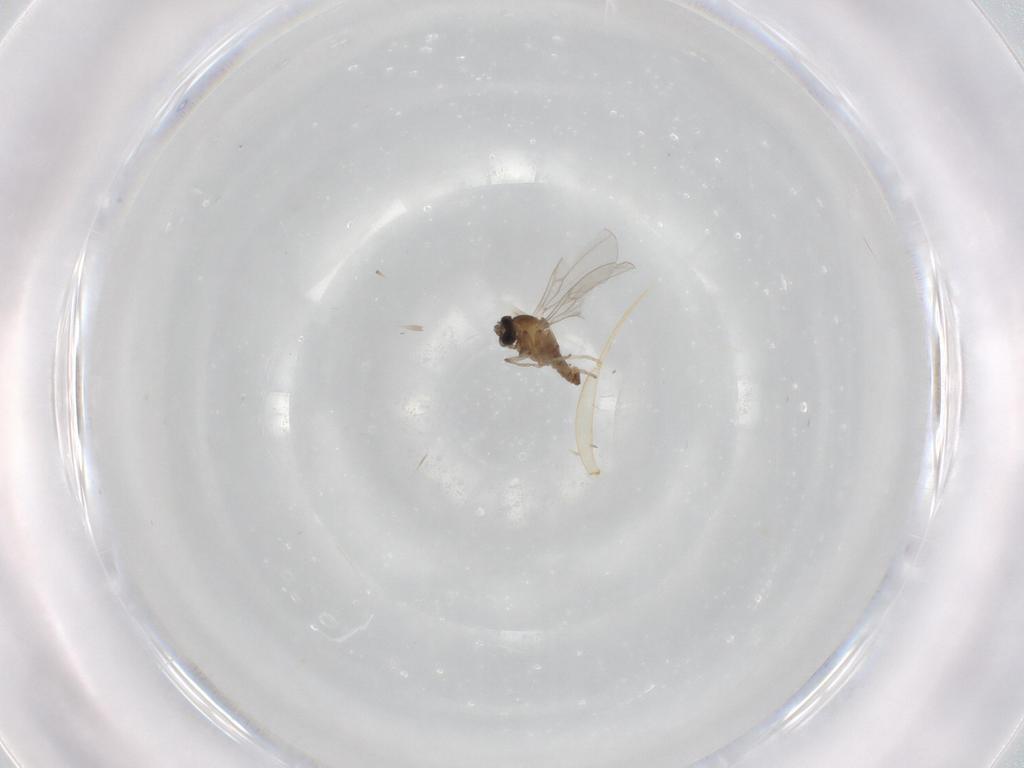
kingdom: Animalia
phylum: Arthropoda
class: Insecta
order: Diptera
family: Cecidomyiidae
